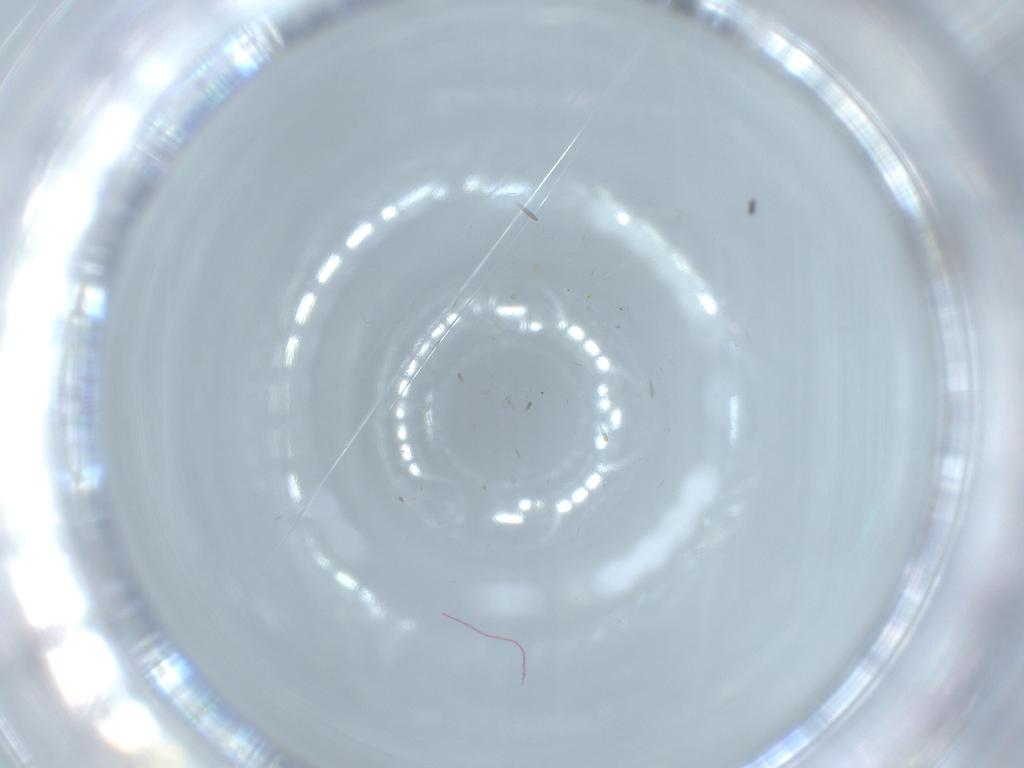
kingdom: Animalia
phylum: Arthropoda
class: Insecta
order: Diptera
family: Sciaridae
